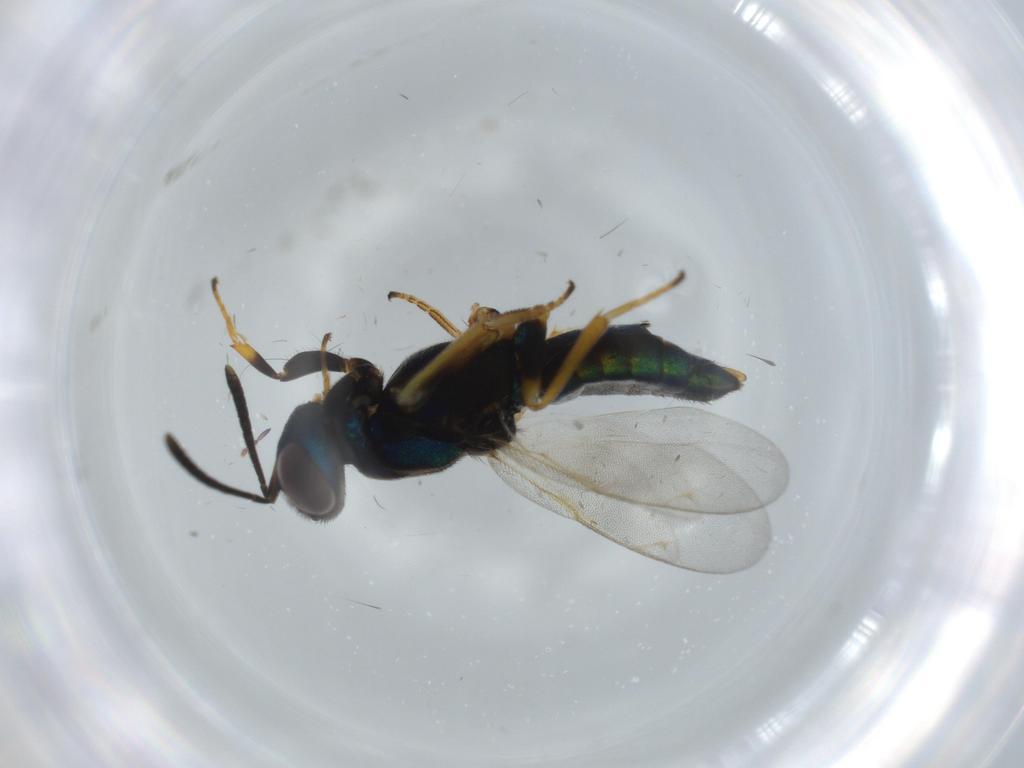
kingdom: Animalia
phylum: Arthropoda
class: Insecta
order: Hymenoptera
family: Eupelmidae
